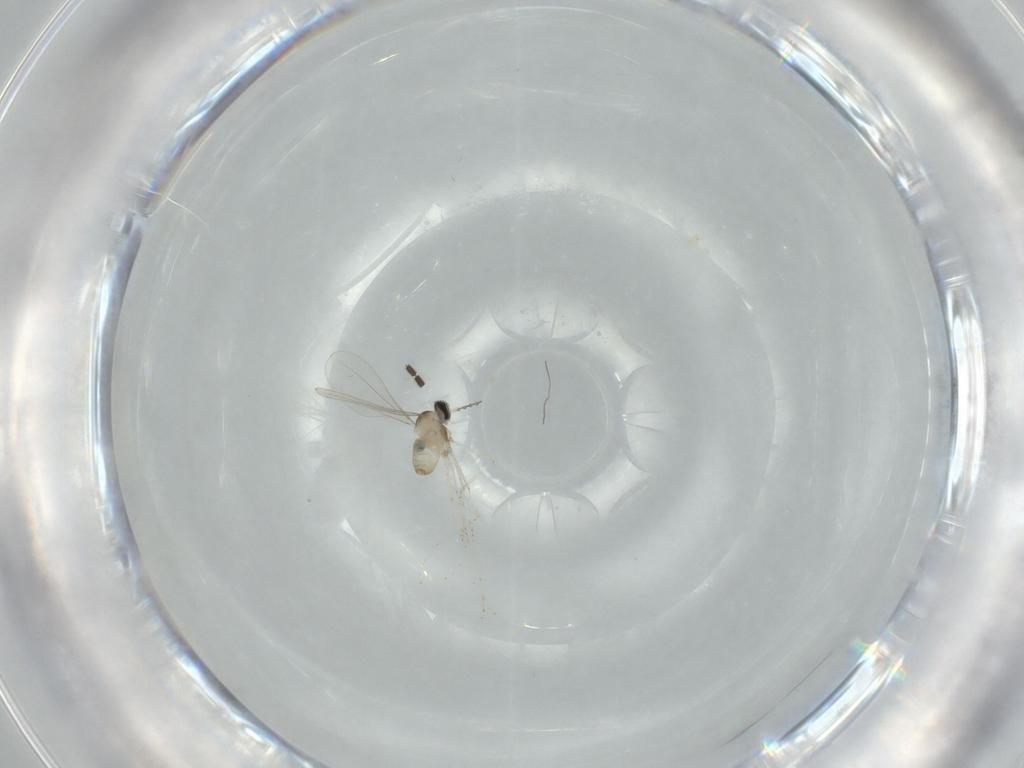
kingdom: Animalia
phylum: Arthropoda
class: Insecta
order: Diptera
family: Cecidomyiidae
